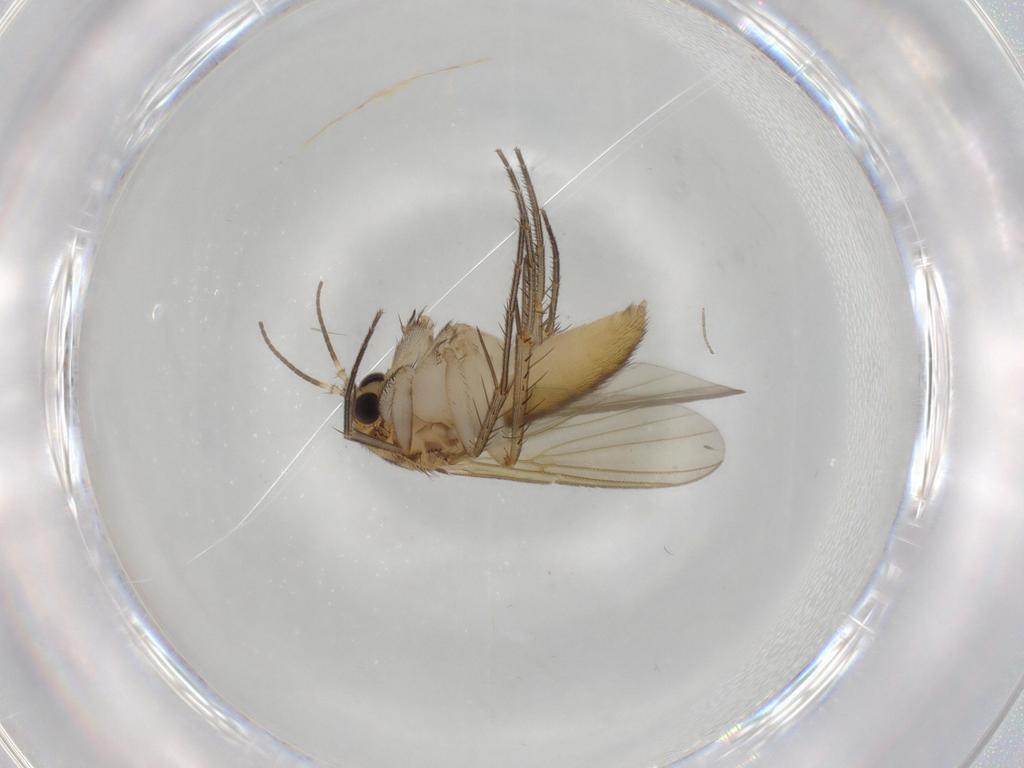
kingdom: Animalia
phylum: Arthropoda
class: Insecta
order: Diptera
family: Mycetophilidae
